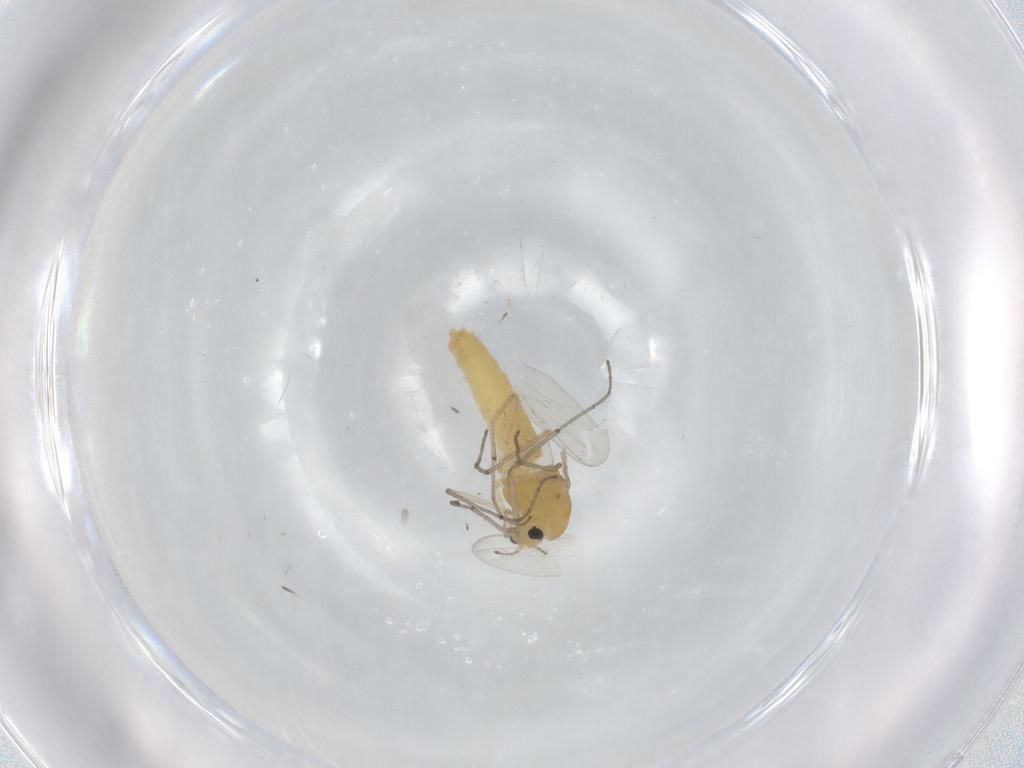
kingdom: Animalia
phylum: Arthropoda
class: Insecta
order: Diptera
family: Chironomidae
